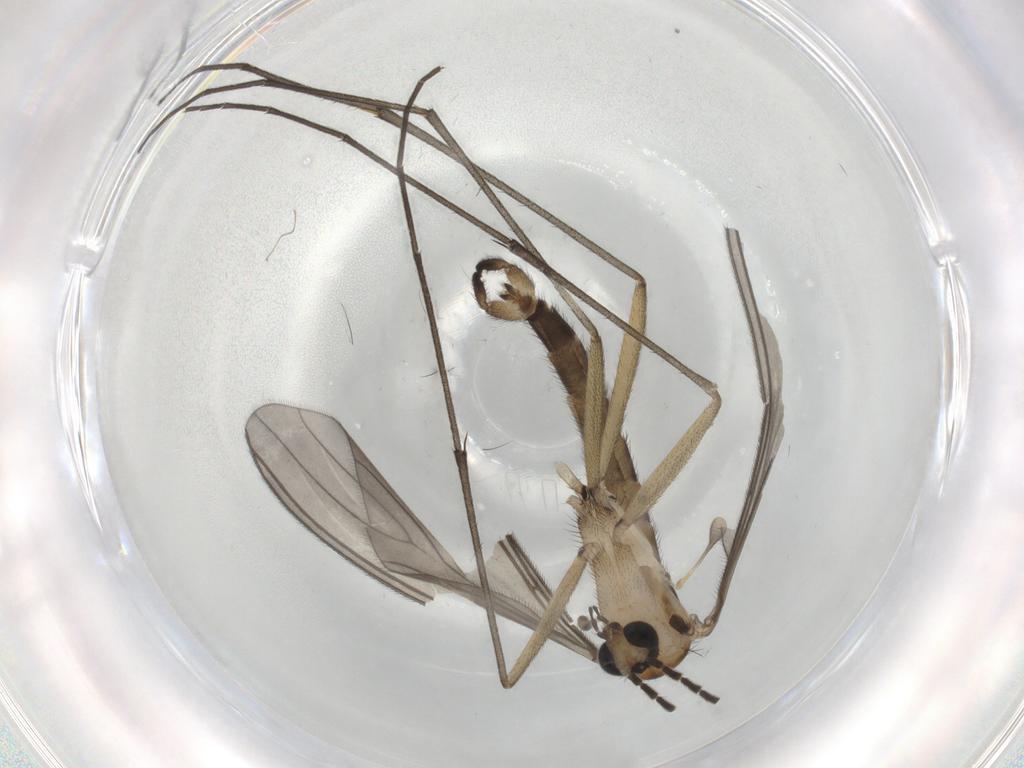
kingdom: Animalia
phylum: Arthropoda
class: Insecta
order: Diptera
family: Sciaridae
